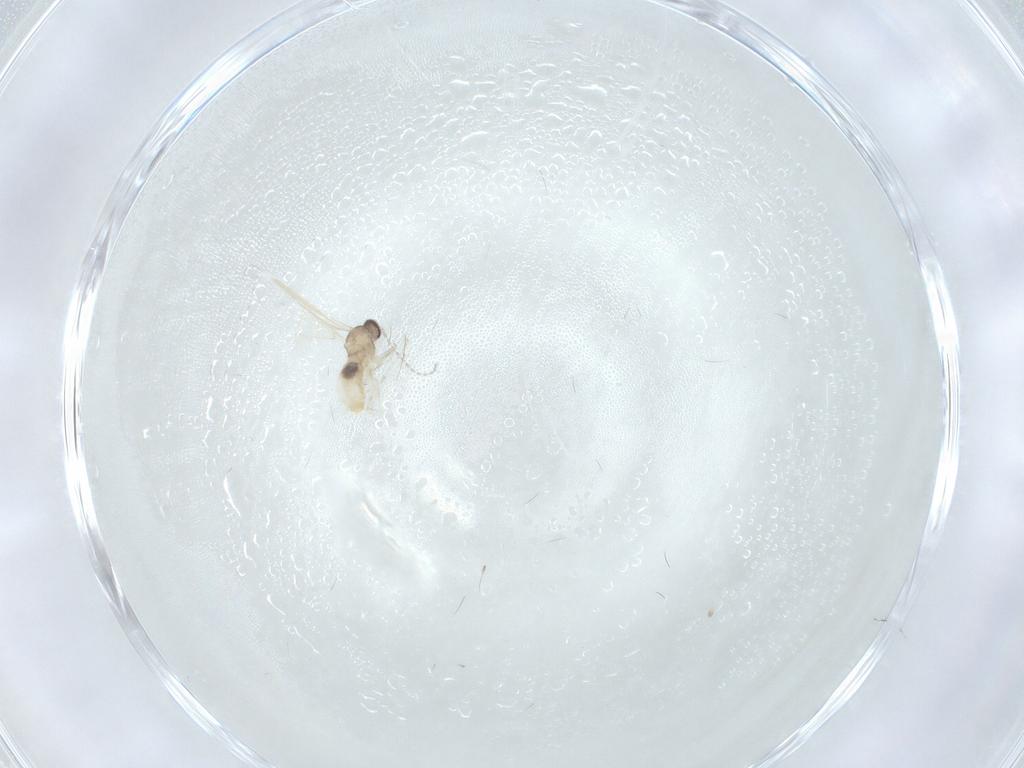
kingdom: Animalia
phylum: Arthropoda
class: Insecta
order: Diptera
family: Cecidomyiidae
